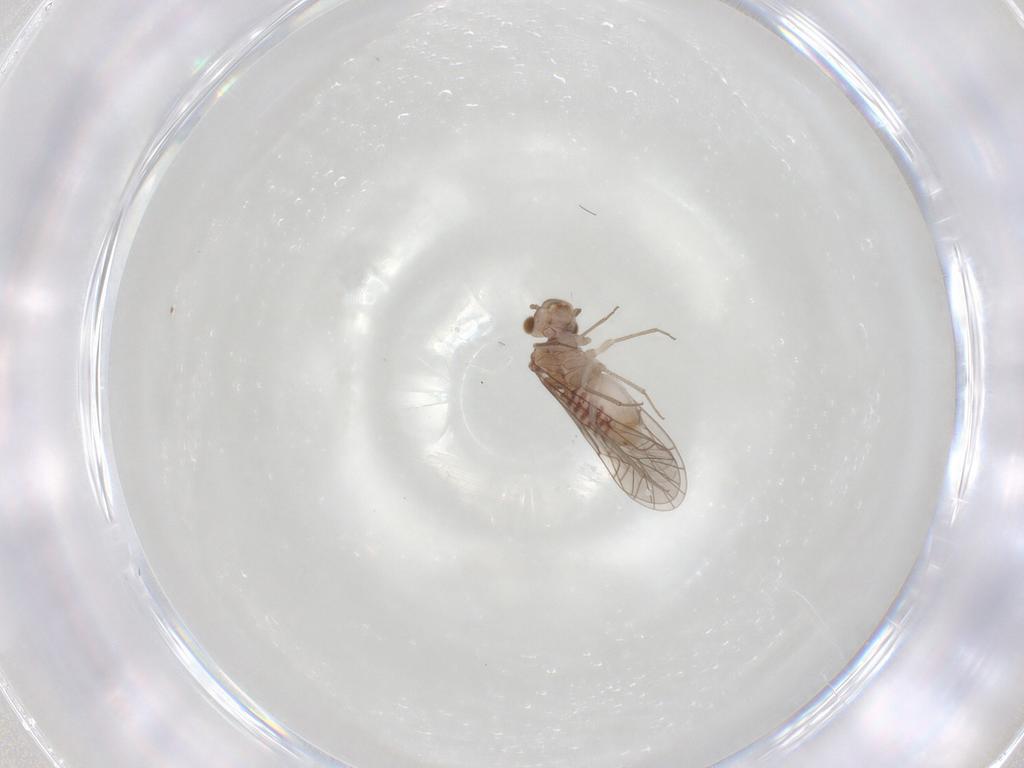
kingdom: Animalia
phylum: Arthropoda
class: Insecta
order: Psocodea
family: Lachesillidae
